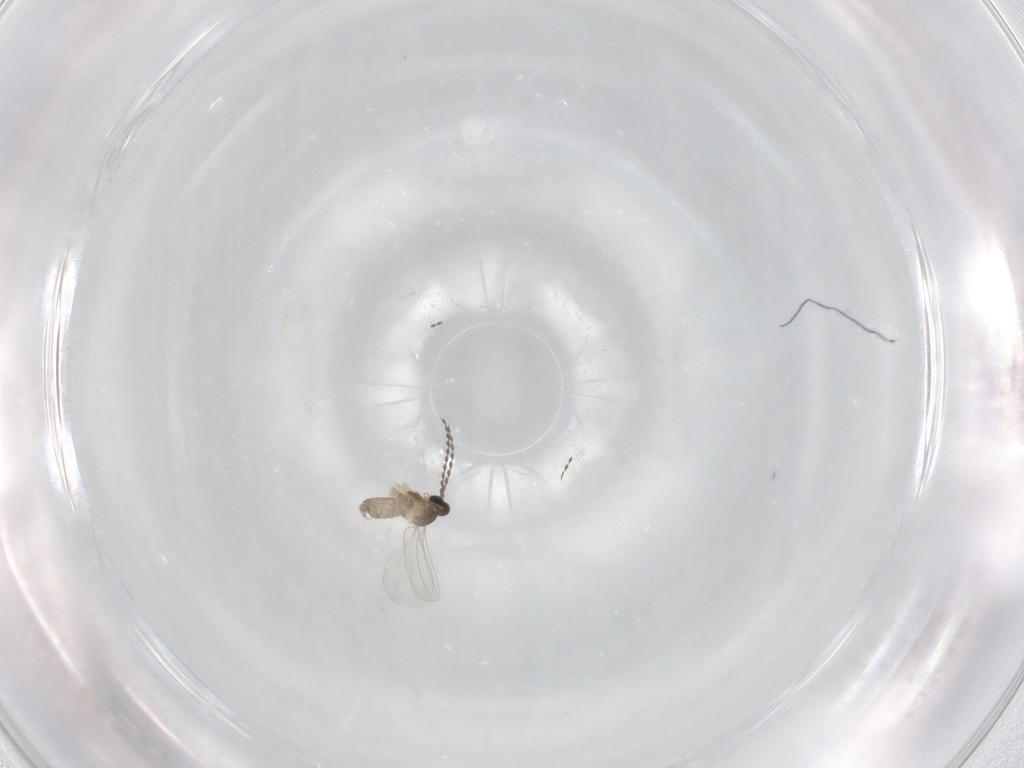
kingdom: Animalia
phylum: Arthropoda
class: Insecta
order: Diptera
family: Cecidomyiidae
